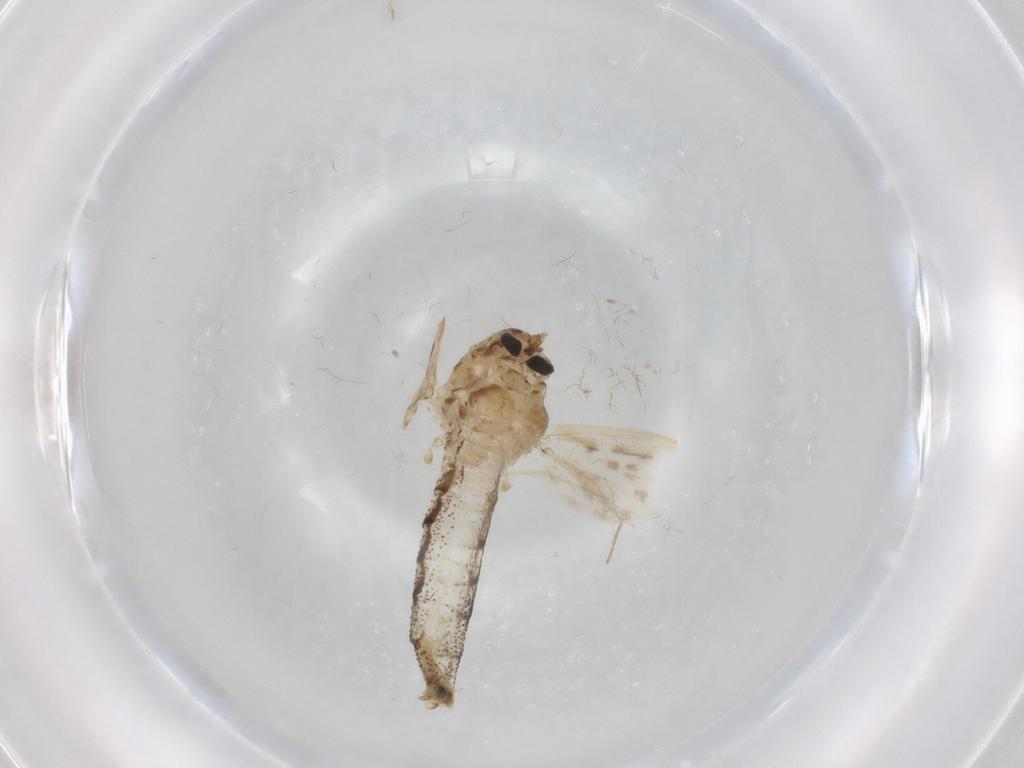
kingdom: Animalia
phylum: Arthropoda
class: Insecta
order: Diptera
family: Chaoboridae
